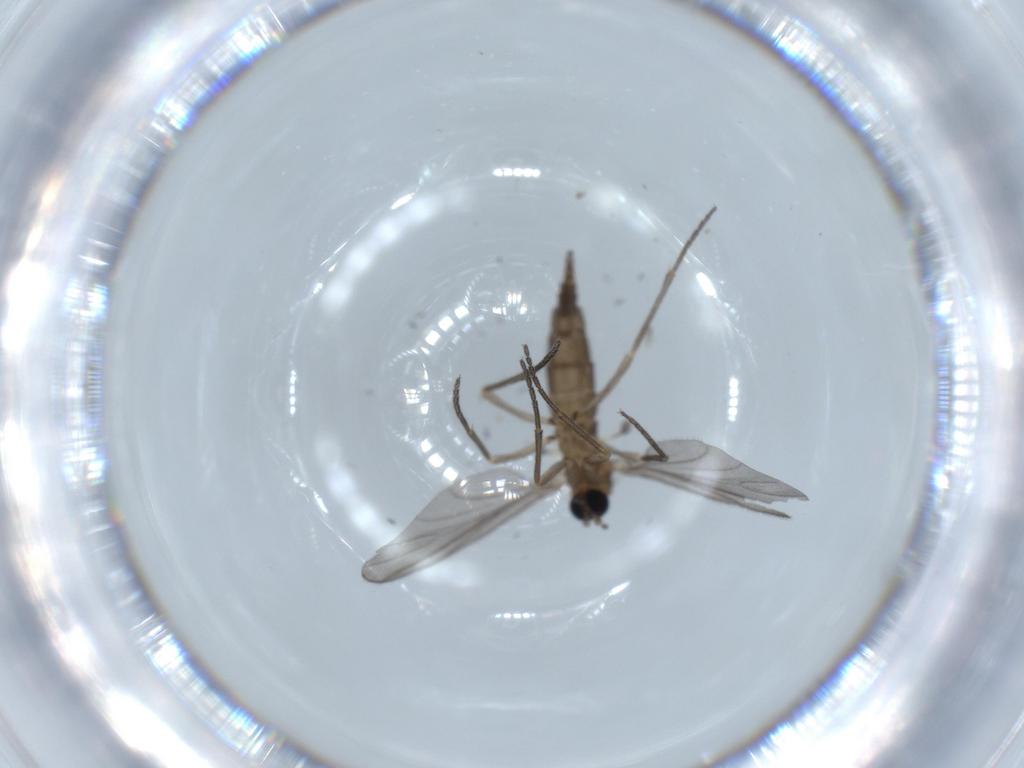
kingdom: Animalia
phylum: Arthropoda
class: Insecta
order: Diptera
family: Sciaridae
